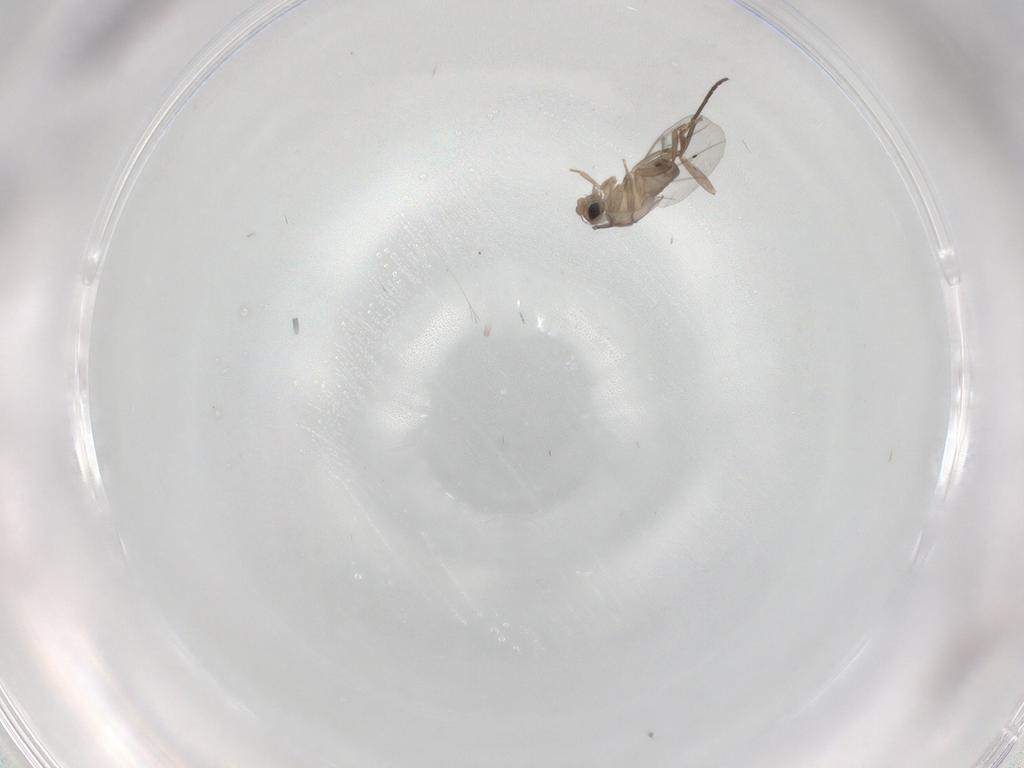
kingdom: Animalia
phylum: Arthropoda
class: Insecta
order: Diptera
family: Sciaridae
